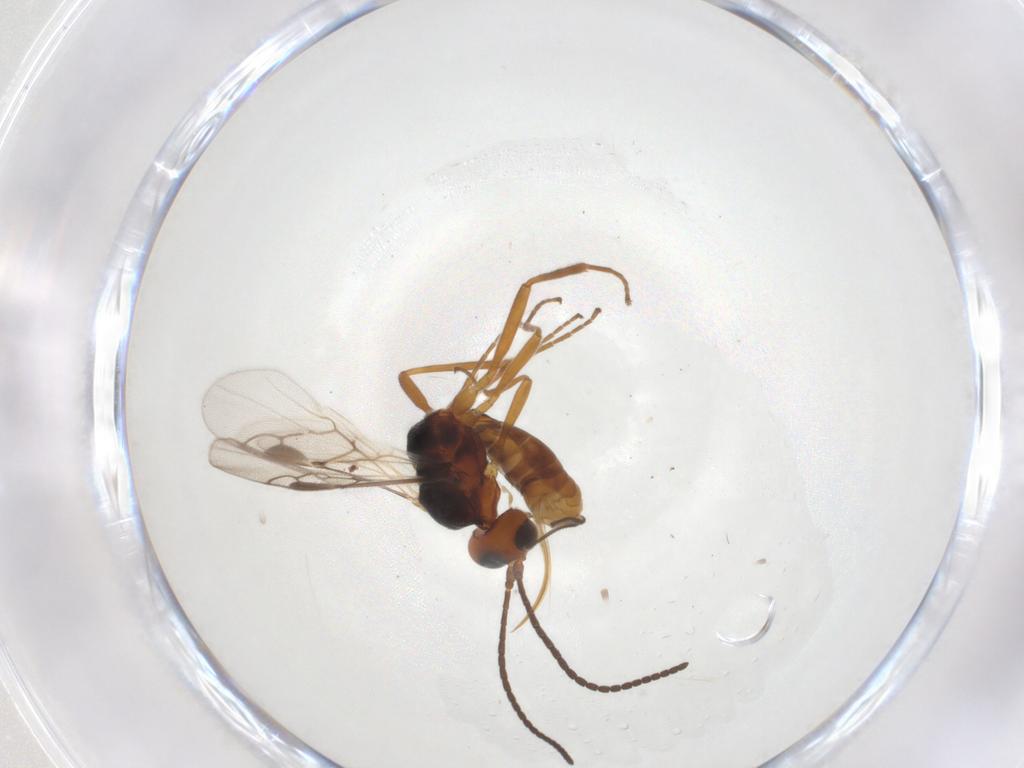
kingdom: Animalia
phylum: Arthropoda
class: Insecta
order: Hymenoptera
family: Braconidae
